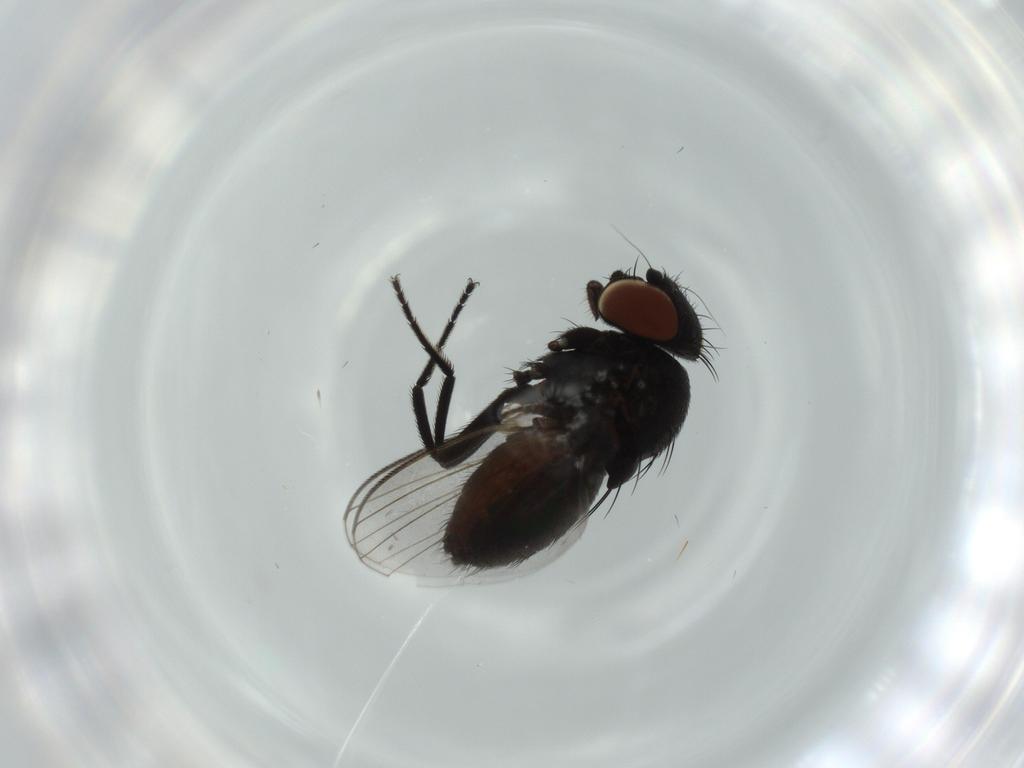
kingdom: Animalia
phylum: Arthropoda
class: Insecta
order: Diptera
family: Milichiidae
